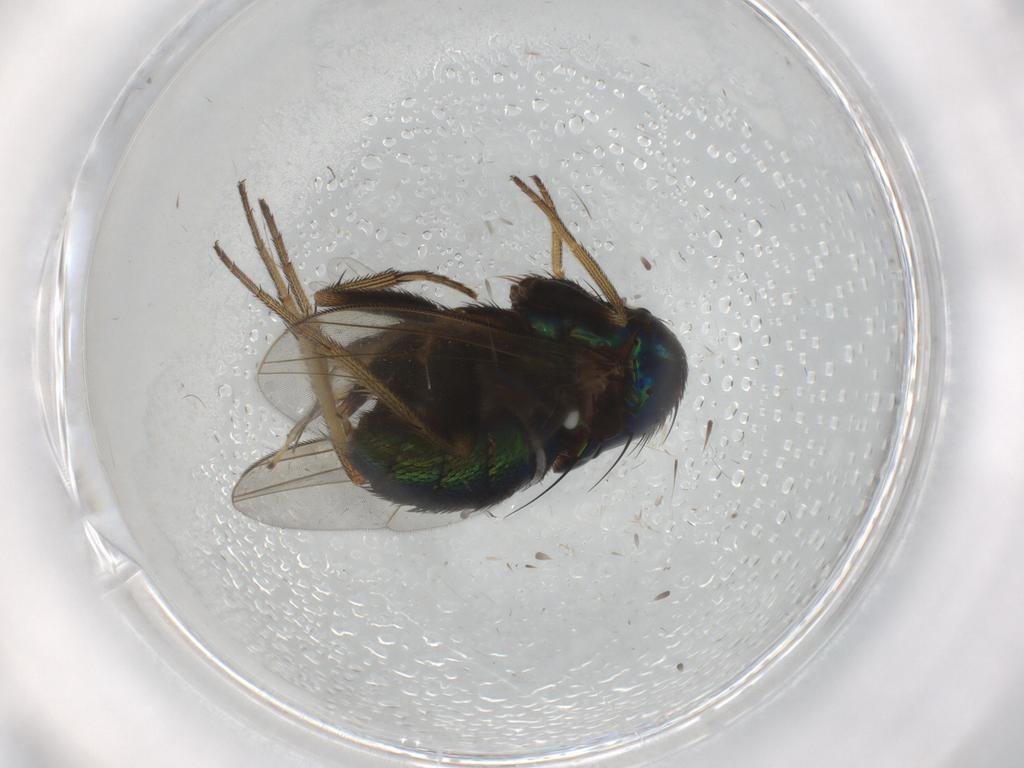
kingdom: Animalia
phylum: Arthropoda
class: Insecta
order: Diptera
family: Dolichopodidae
